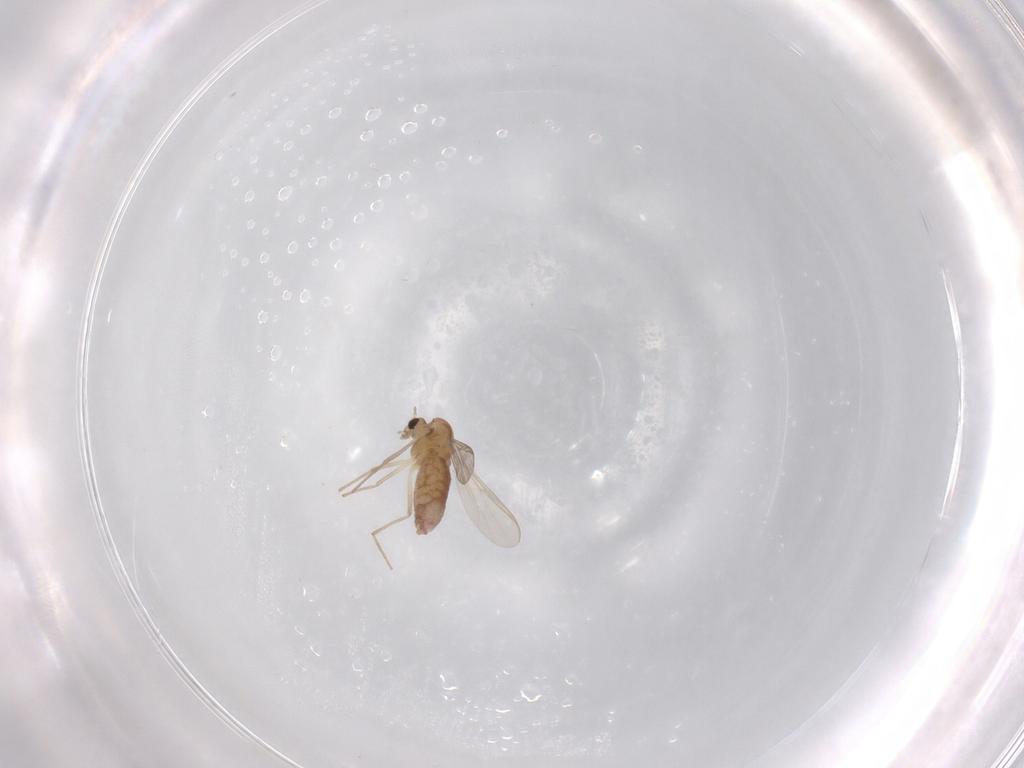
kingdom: Animalia
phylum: Arthropoda
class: Insecta
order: Diptera
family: Chironomidae
